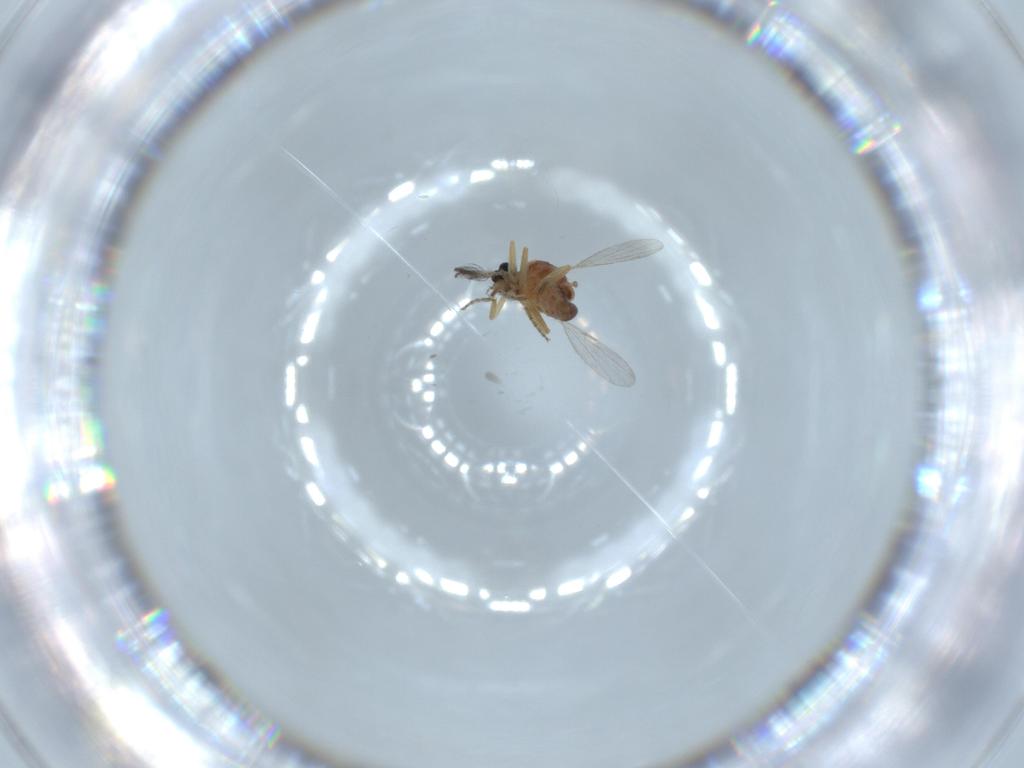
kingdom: Animalia
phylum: Arthropoda
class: Insecta
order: Diptera
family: Ceratopogonidae
